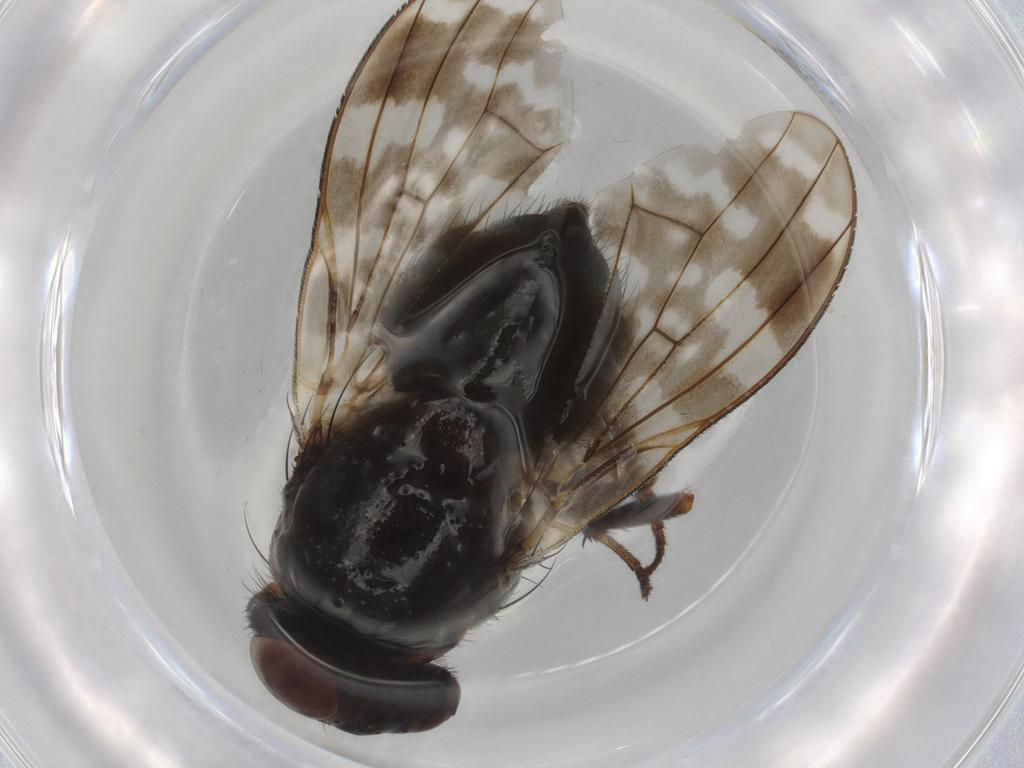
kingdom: Animalia
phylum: Arthropoda
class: Insecta
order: Diptera
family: Lauxaniidae
